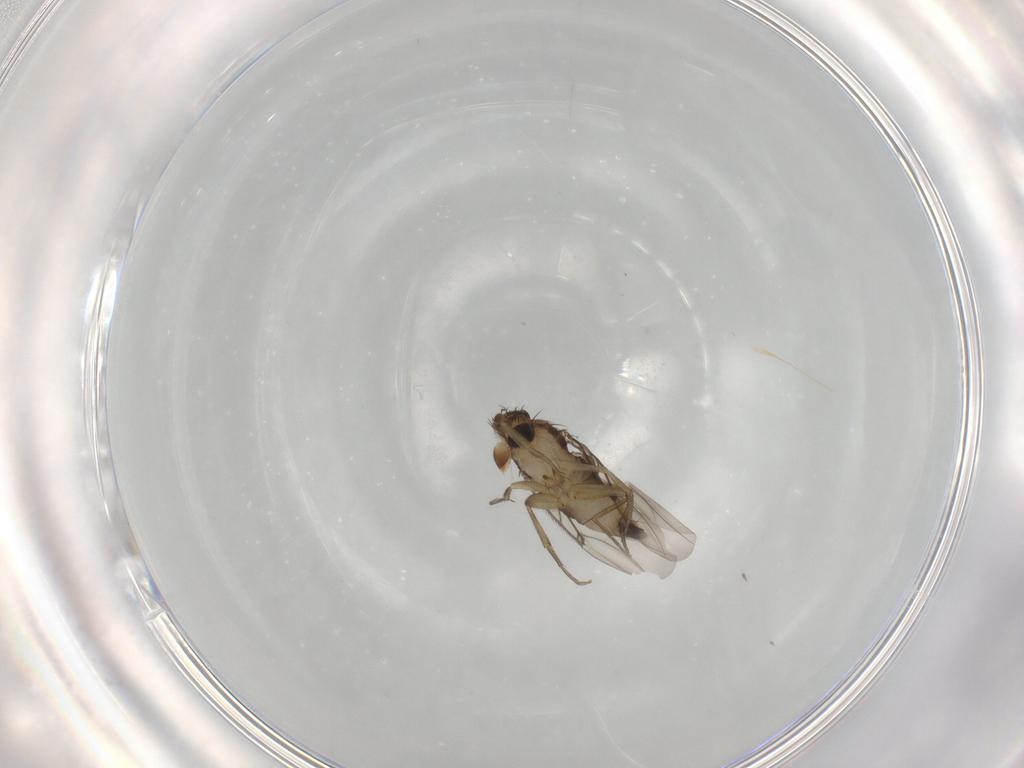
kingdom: Animalia
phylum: Arthropoda
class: Insecta
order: Diptera
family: Phoridae
